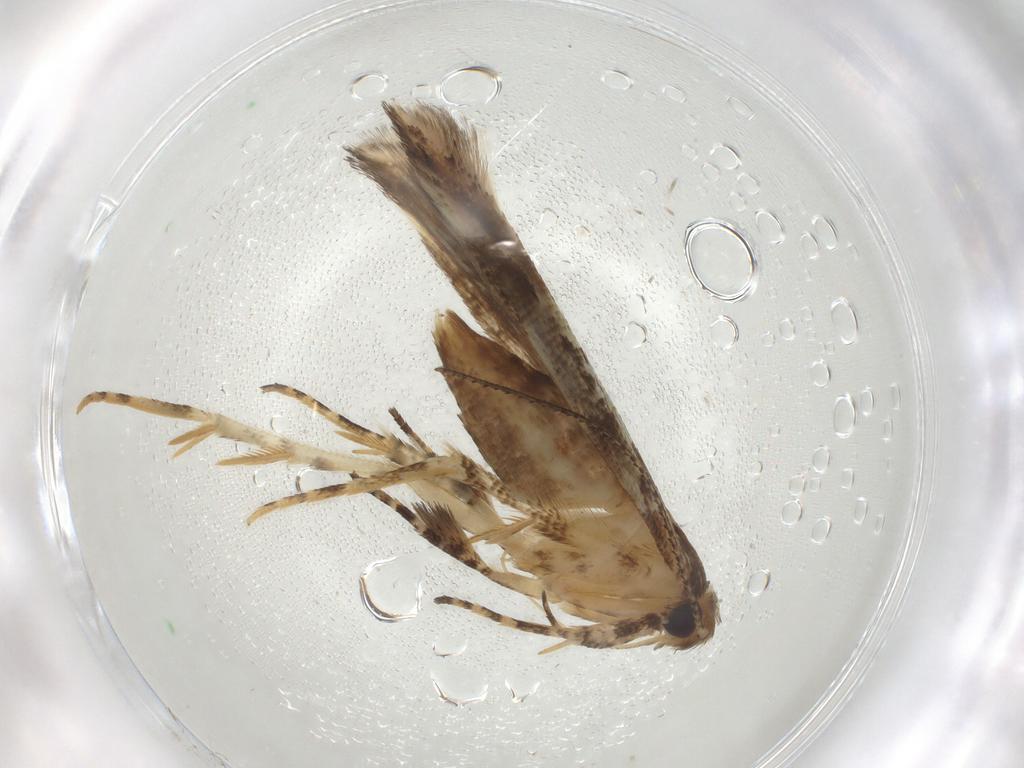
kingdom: Animalia
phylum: Arthropoda
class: Insecta
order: Lepidoptera
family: Gelechiidae
